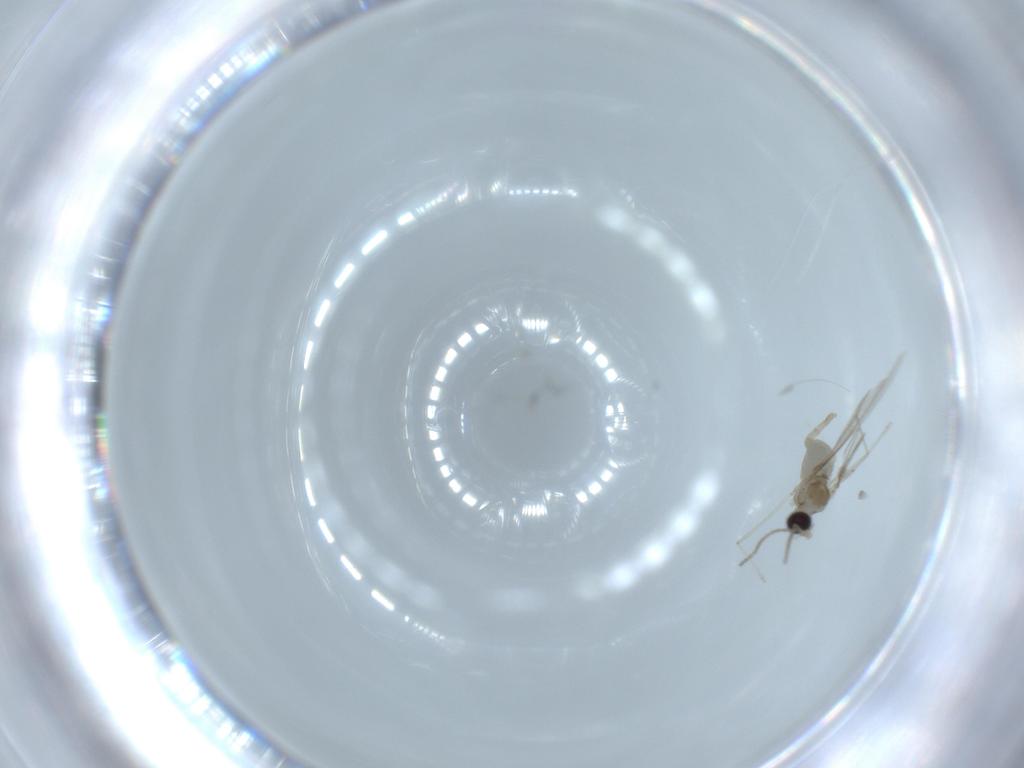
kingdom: Animalia
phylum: Arthropoda
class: Insecta
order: Diptera
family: Cecidomyiidae
